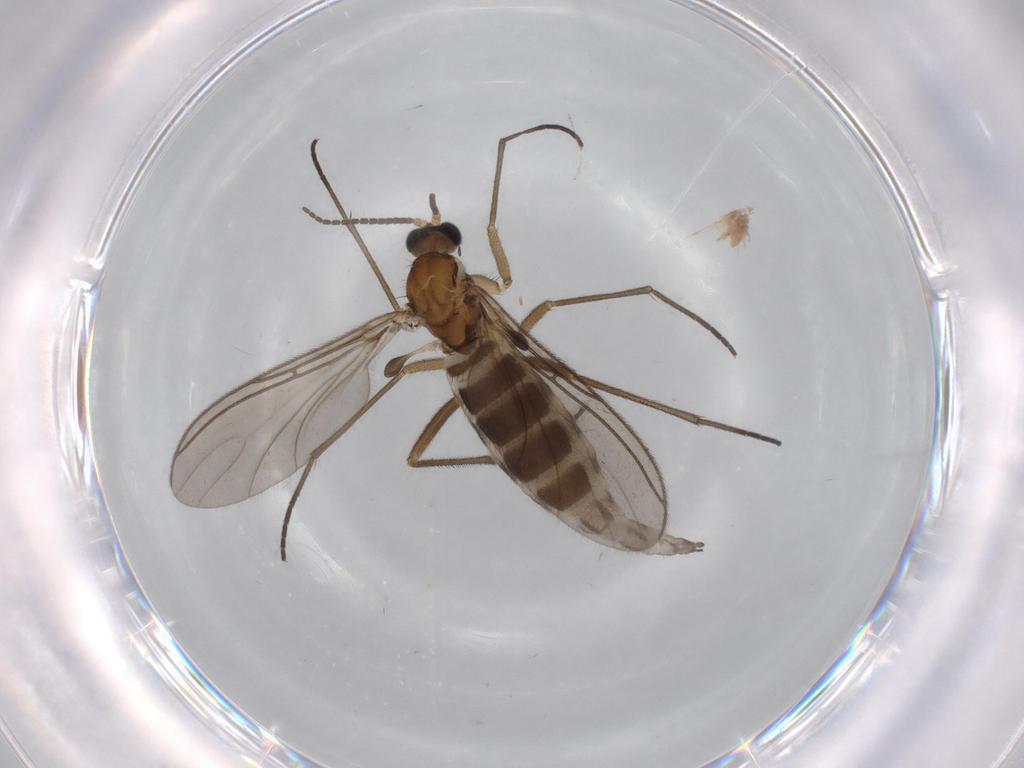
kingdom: Animalia
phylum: Arthropoda
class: Insecta
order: Diptera
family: Sciaridae
